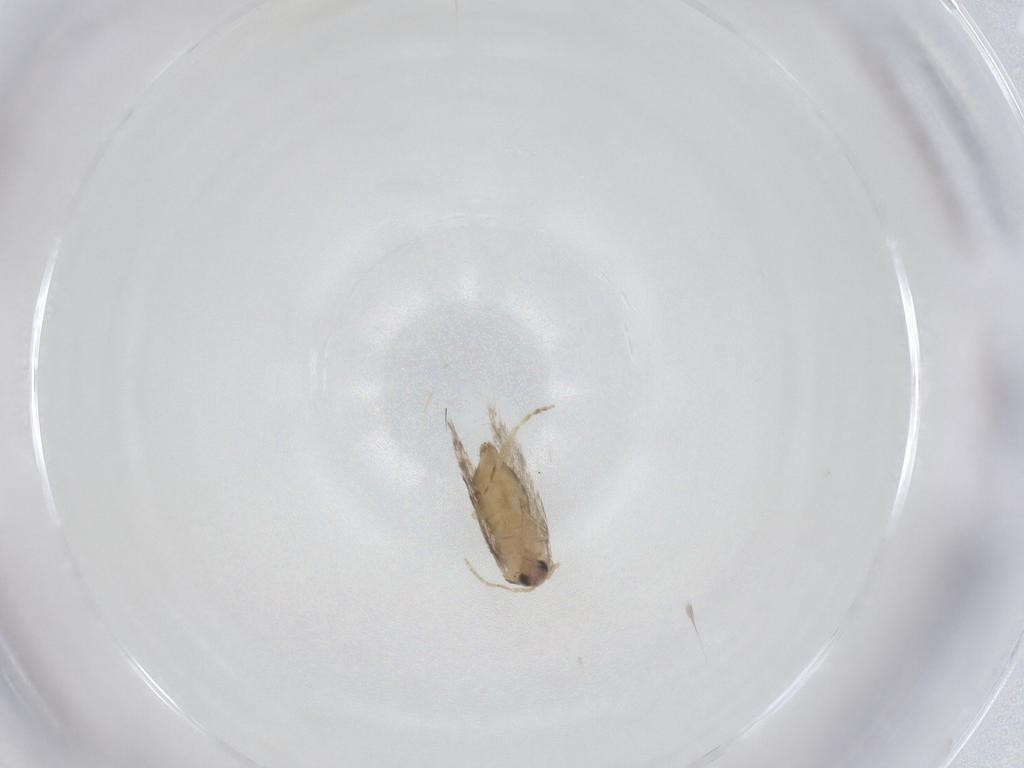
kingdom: Animalia
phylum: Arthropoda
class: Insecta
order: Lepidoptera
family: Nepticulidae
